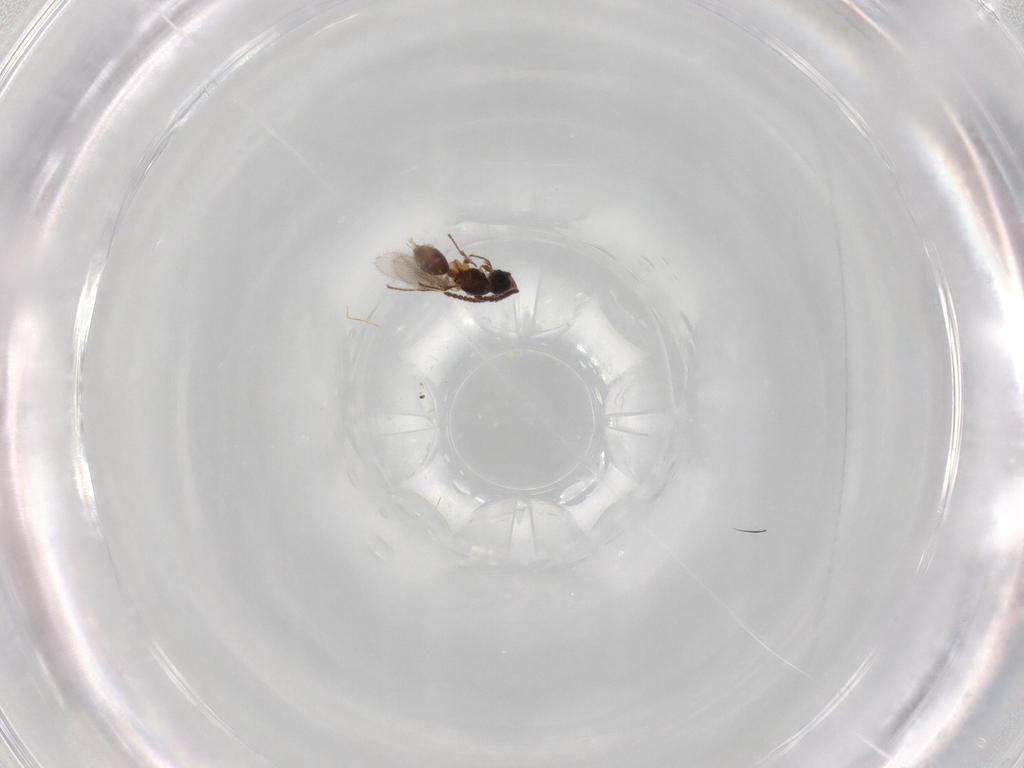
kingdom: Animalia
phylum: Arthropoda
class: Insecta
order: Hymenoptera
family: Diapriidae
